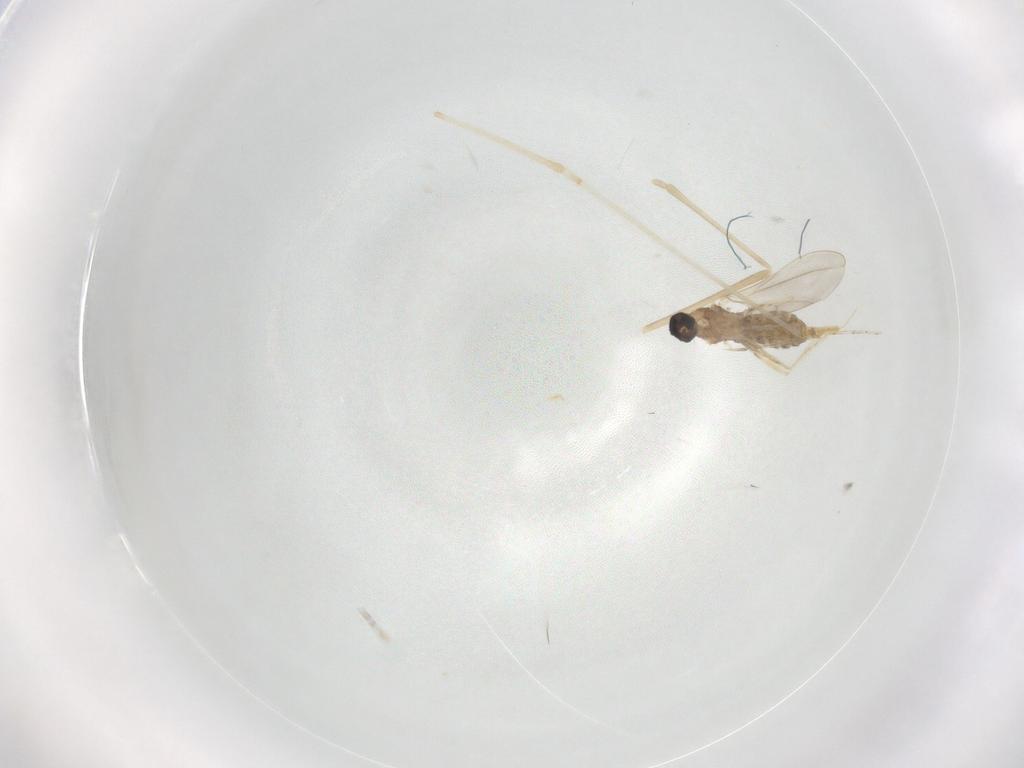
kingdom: Animalia
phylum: Arthropoda
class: Insecta
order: Diptera
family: Cecidomyiidae
